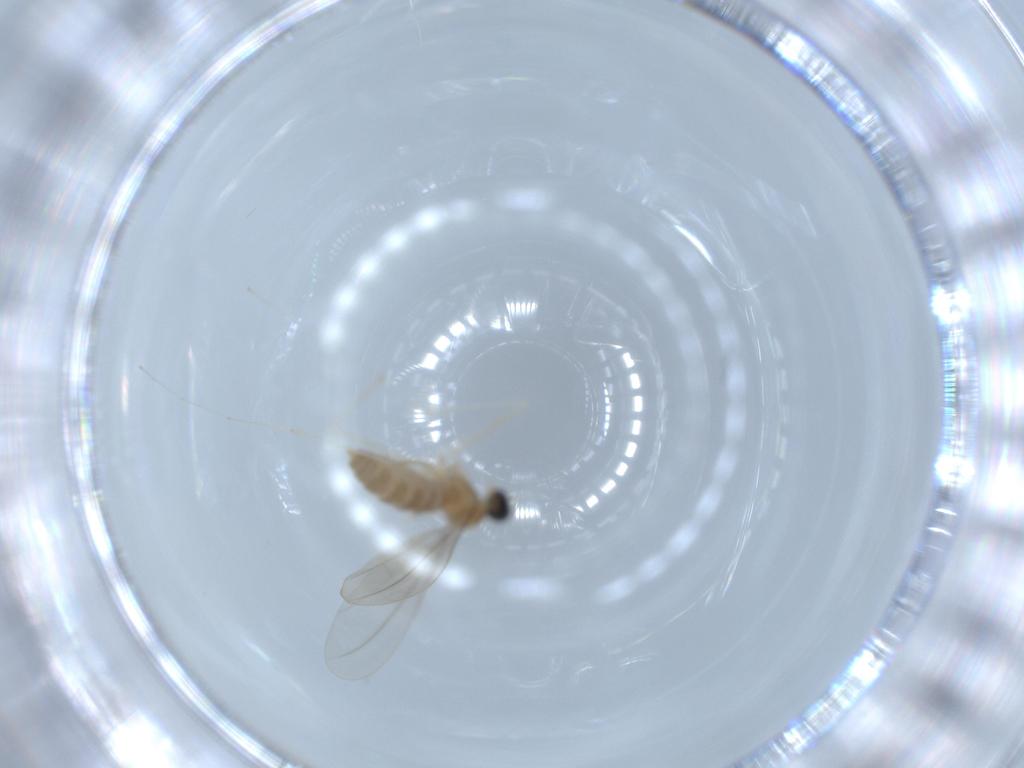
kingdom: Animalia
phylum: Arthropoda
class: Insecta
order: Diptera
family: Cecidomyiidae
